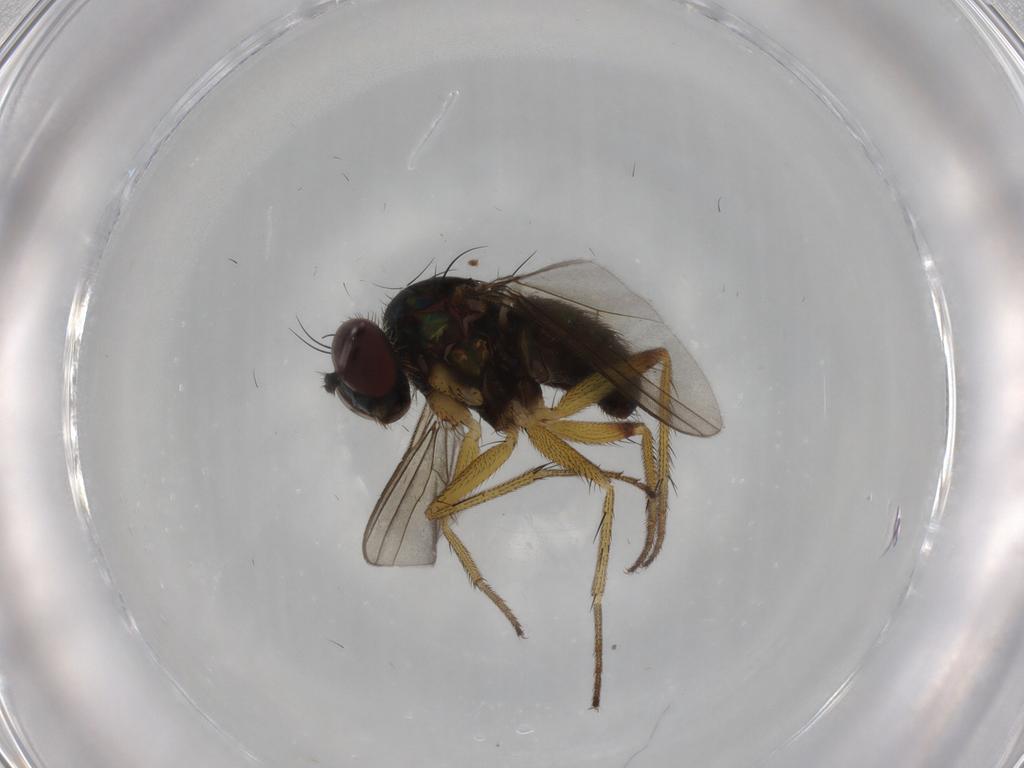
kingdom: Animalia
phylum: Arthropoda
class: Insecta
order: Diptera
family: Dolichopodidae
